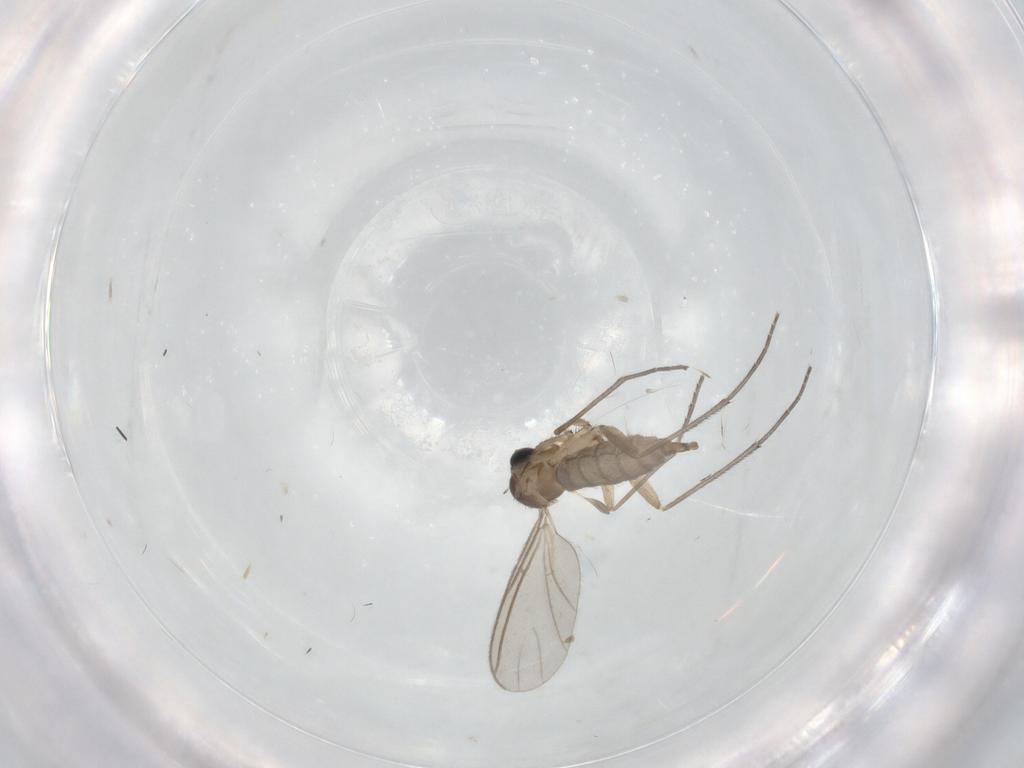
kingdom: Animalia
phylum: Arthropoda
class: Insecta
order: Diptera
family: Sciaridae
